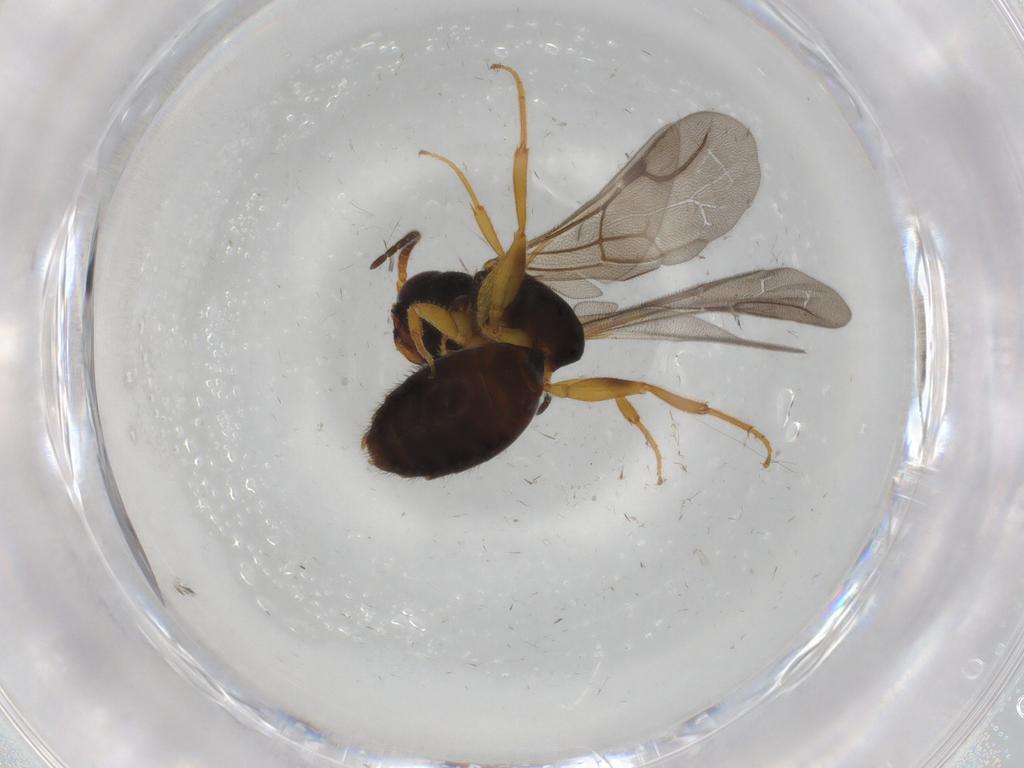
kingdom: Animalia
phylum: Arthropoda
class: Insecta
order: Hymenoptera
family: Bethylidae
